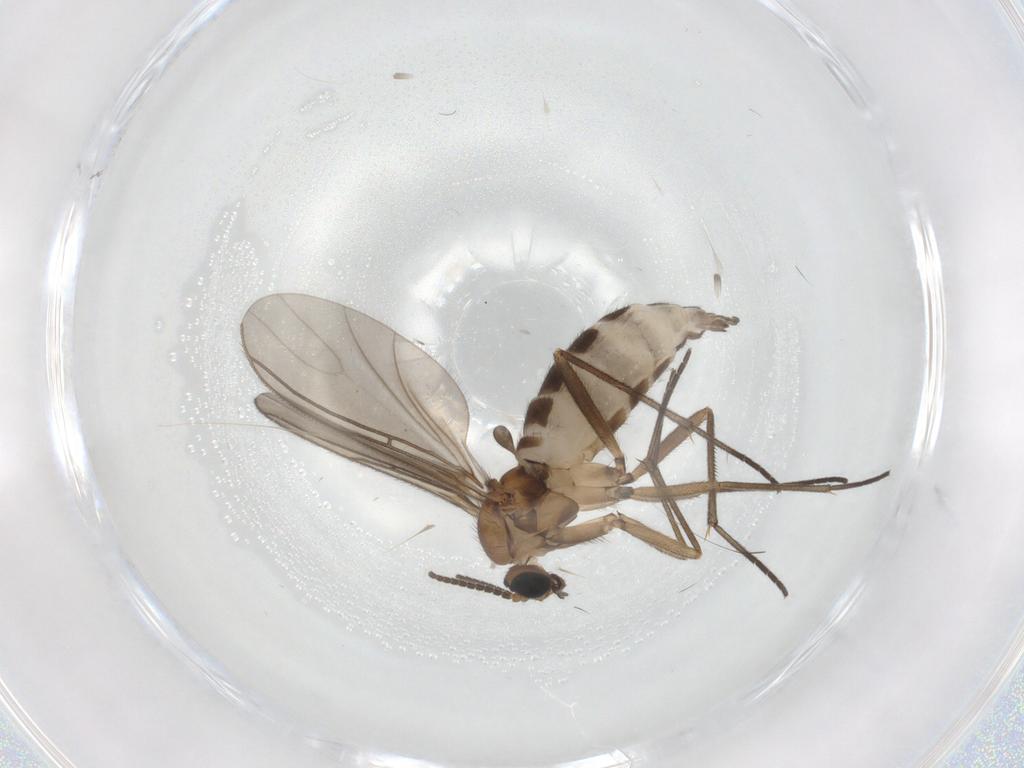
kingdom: Animalia
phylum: Arthropoda
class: Insecta
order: Diptera
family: Sciaridae
